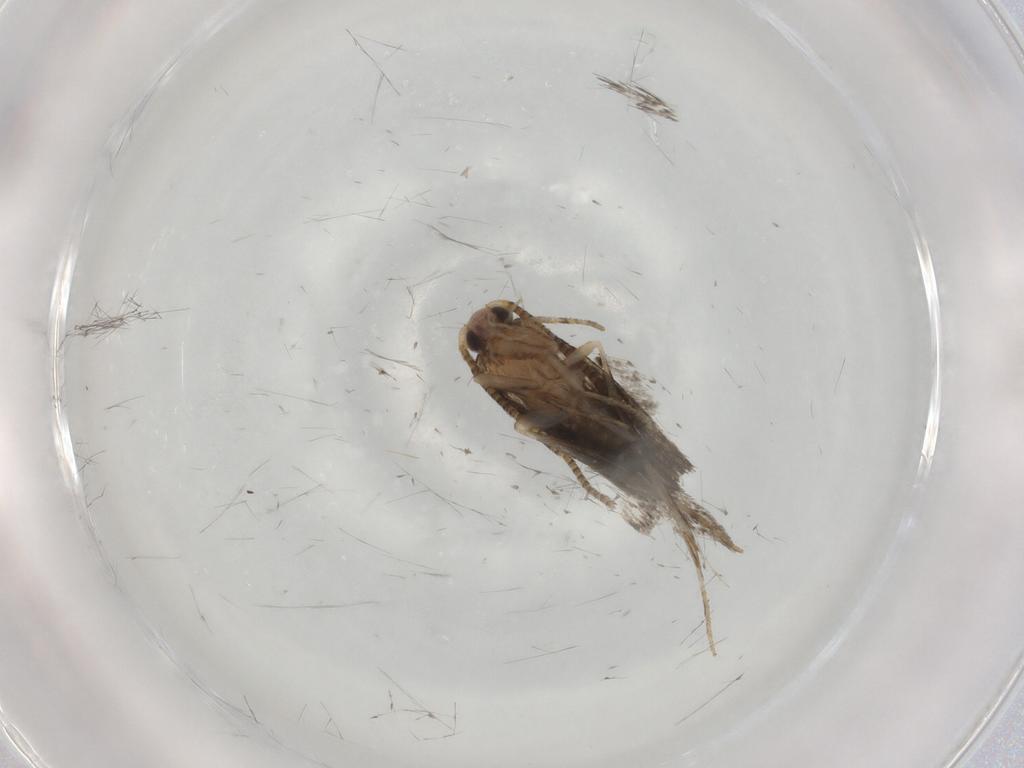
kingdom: Animalia
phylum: Arthropoda
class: Insecta
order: Lepidoptera
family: Tineidae
